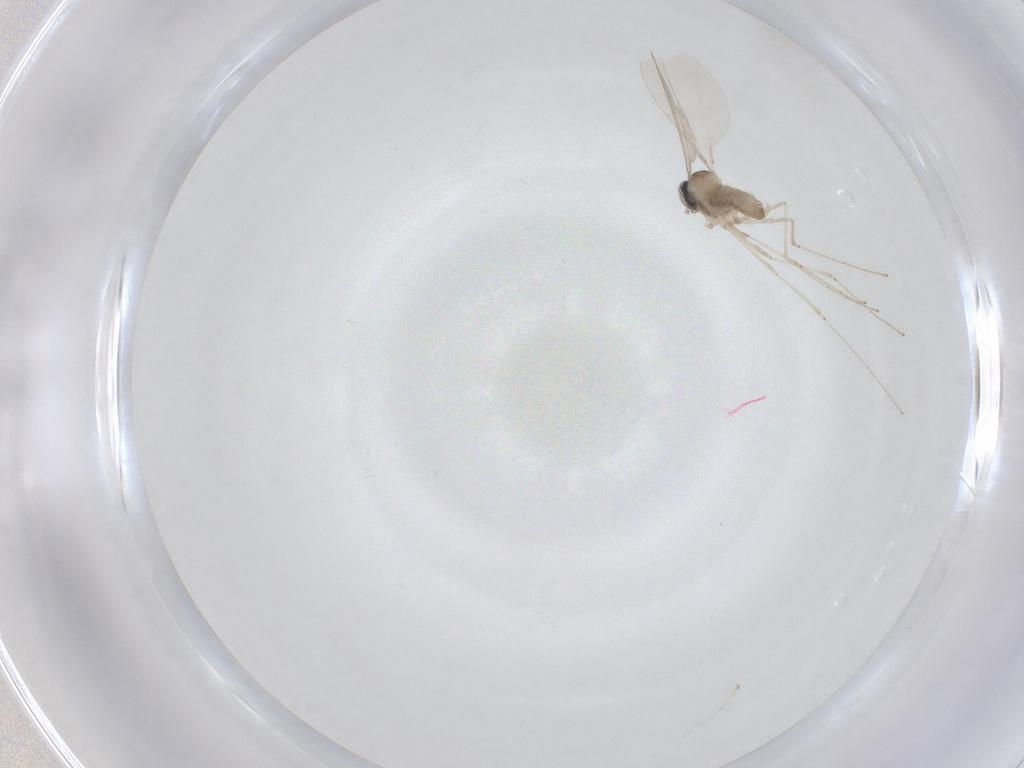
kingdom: Animalia
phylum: Arthropoda
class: Insecta
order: Diptera
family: Cecidomyiidae
